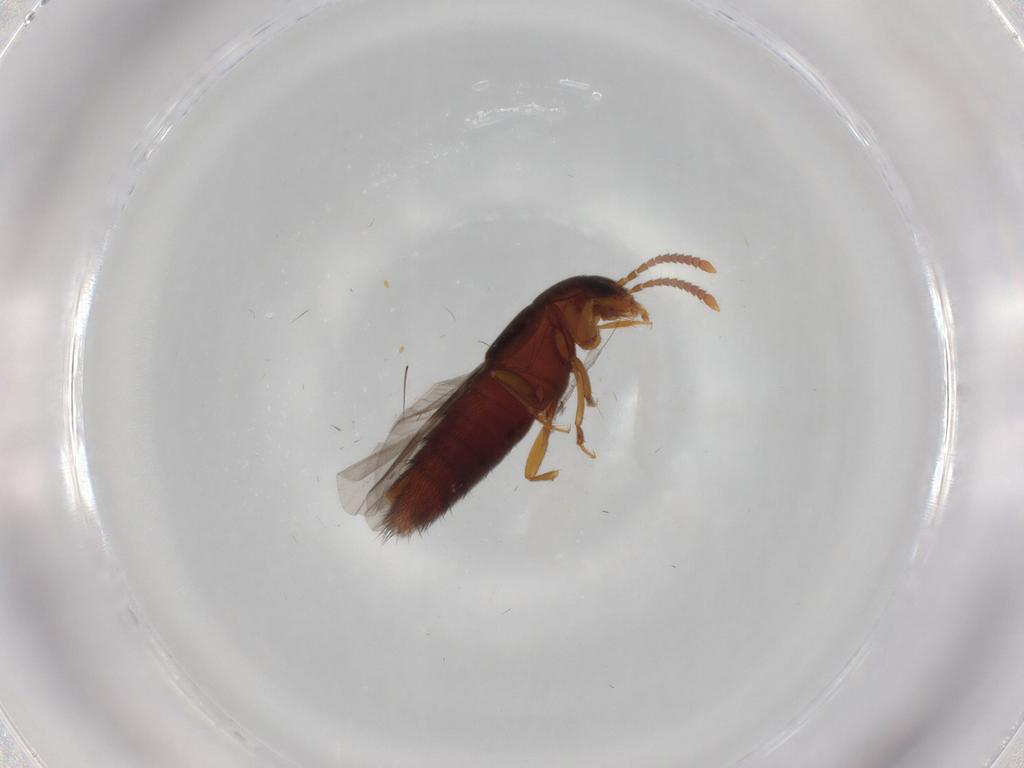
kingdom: Animalia
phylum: Arthropoda
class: Insecta
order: Coleoptera
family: Staphylinidae
